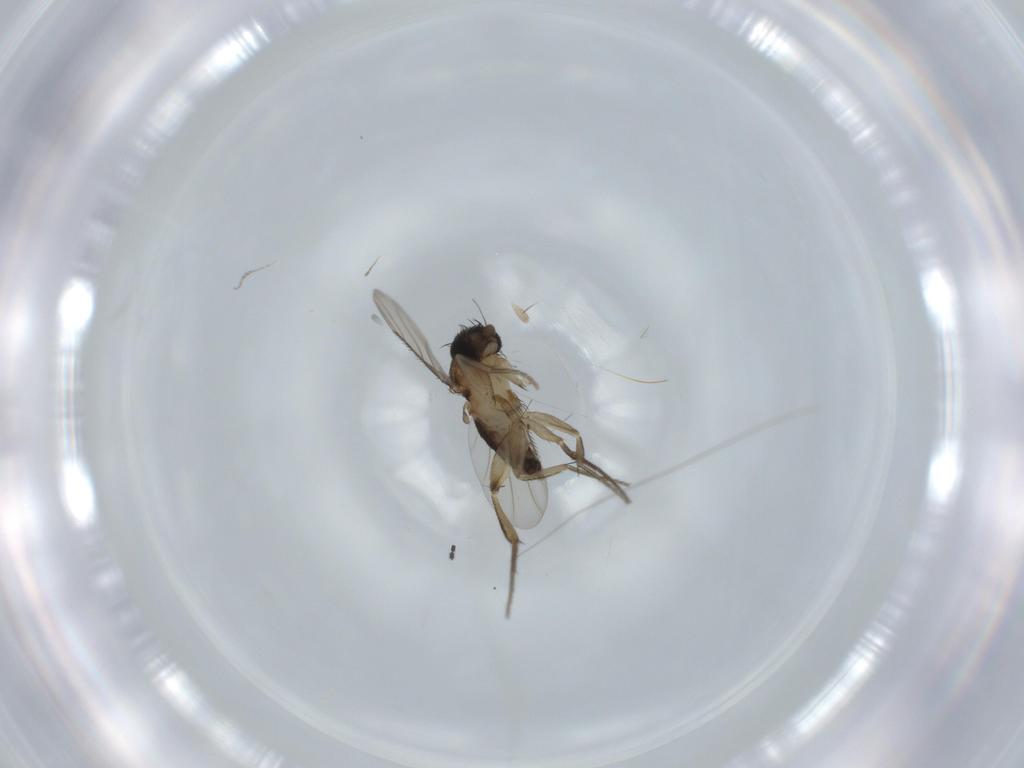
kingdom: Animalia
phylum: Arthropoda
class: Insecta
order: Diptera
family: Phoridae
